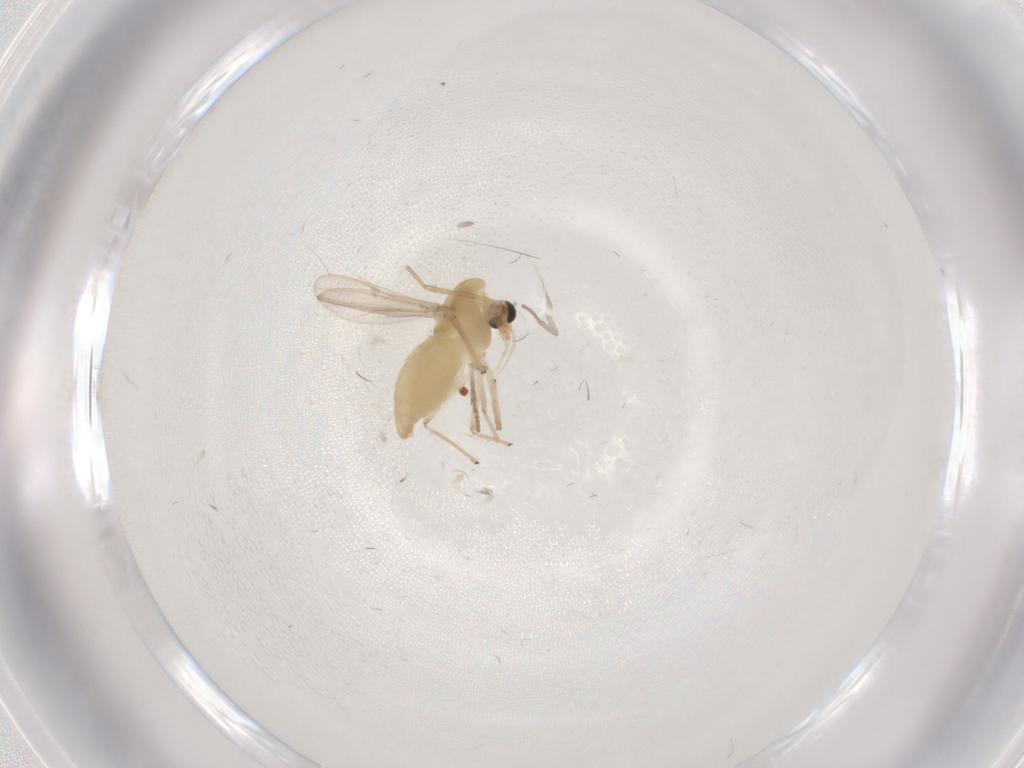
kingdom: Animalia
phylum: Arthropoda
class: Insecta
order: Diptera
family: Chironomidae
